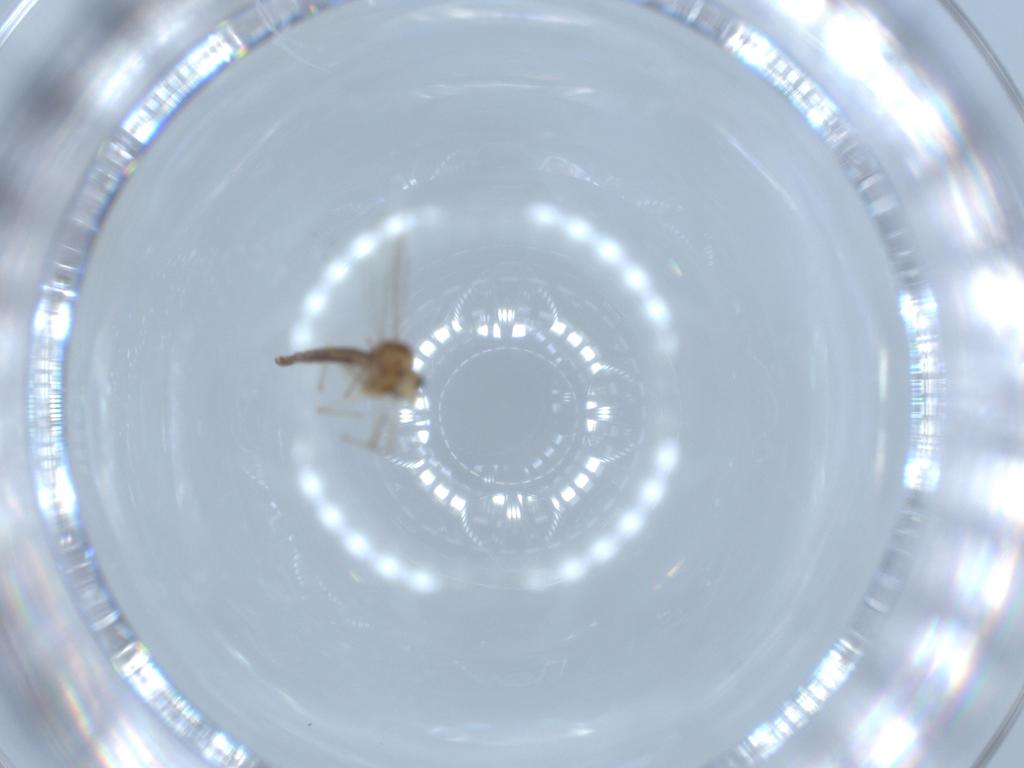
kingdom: Animalia
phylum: Arthropoda
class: Insecta
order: Diptera
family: Chironomidae
